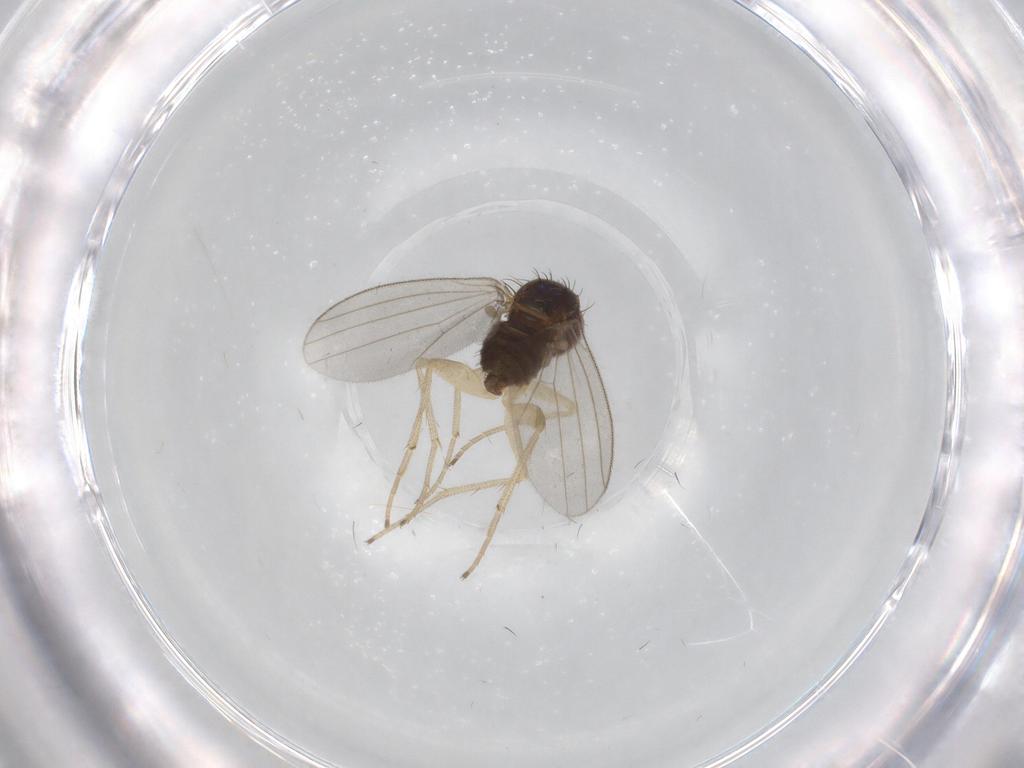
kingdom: Animalia
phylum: Arthropoda
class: Insecta
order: Diptera
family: Dolichopodidae
